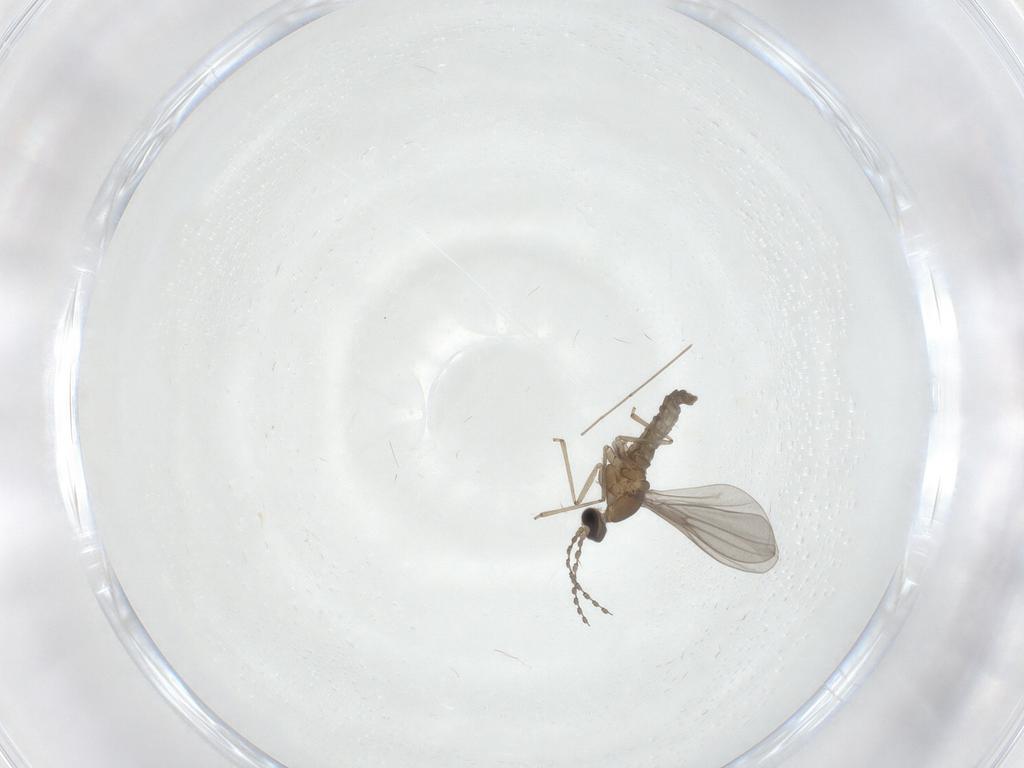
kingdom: Animalia
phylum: Arthropoda
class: Insecta
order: Diptera
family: Cecidomyiidae
